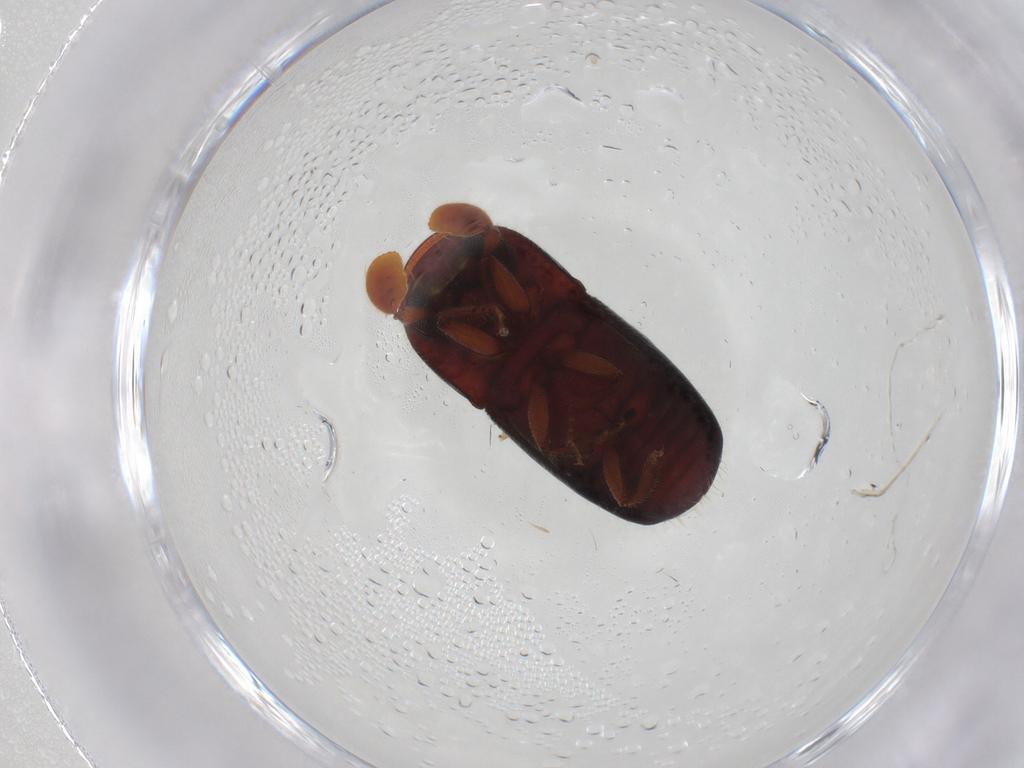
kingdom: Animalia
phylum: Arthropoda
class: Insecta
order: Coleoptera
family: Curculionidae
